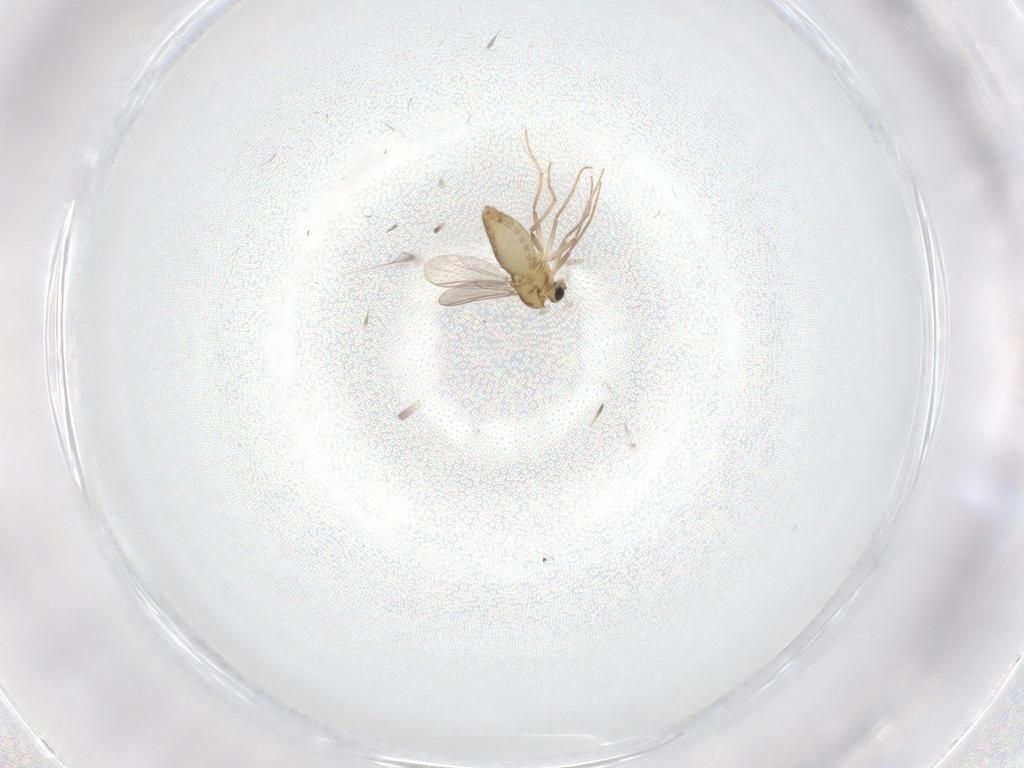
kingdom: Animalia
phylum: Arthropoda
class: Insecta
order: Diptera
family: Chironomidae
